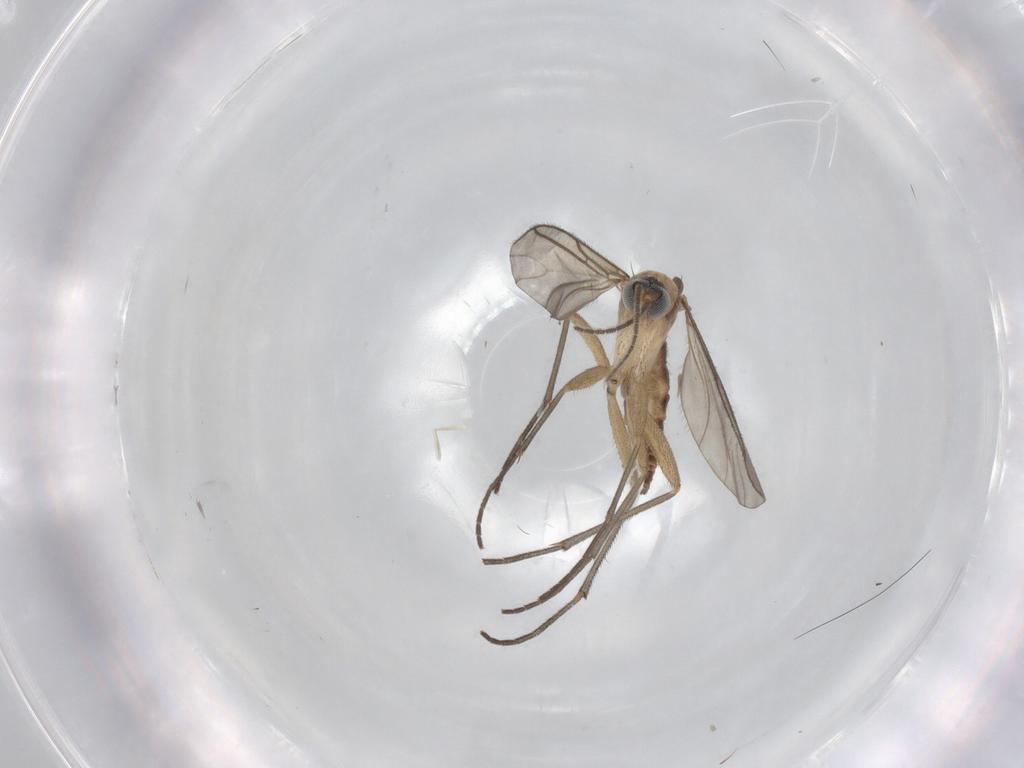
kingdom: Animalia
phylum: Arthropoda
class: Insecta
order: Diptera
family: Sciaridae
